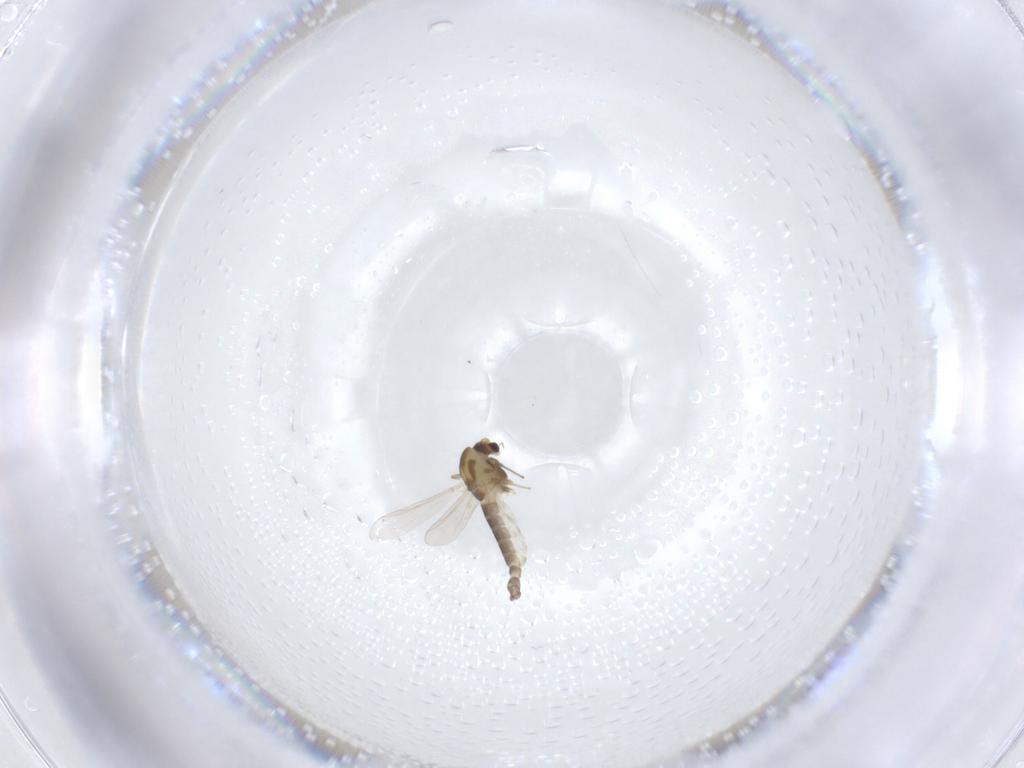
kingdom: Animalia
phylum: Arthropoda
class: Insecta
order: Diptera
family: Chironomidae
